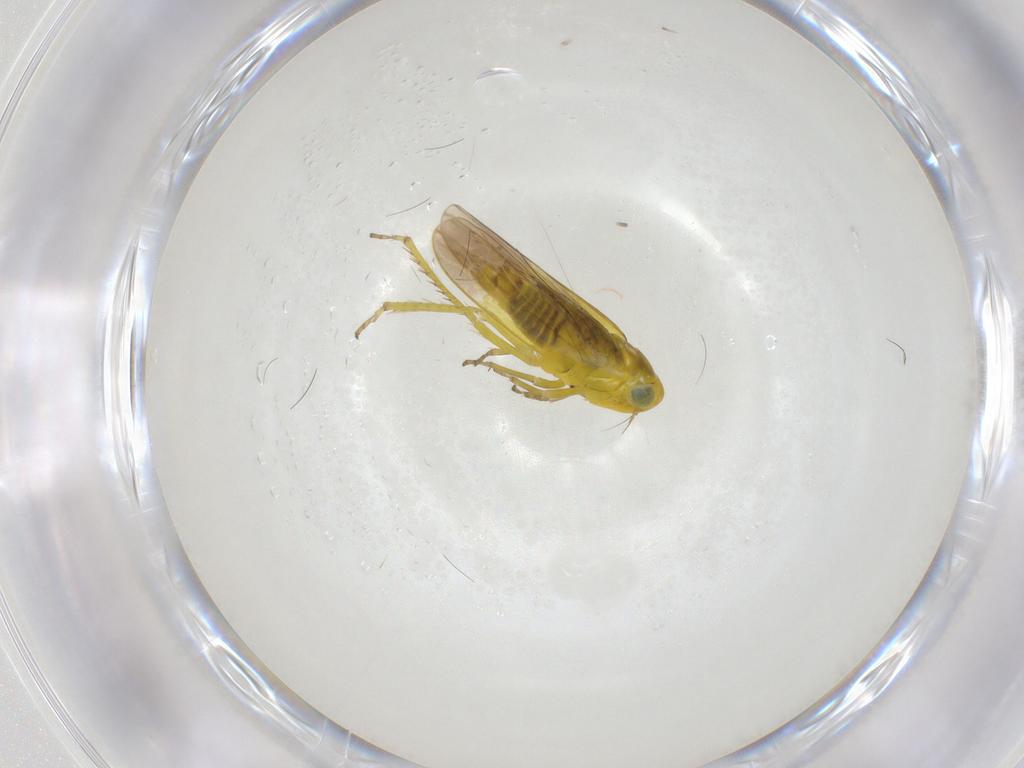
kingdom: Animalia
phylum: Arthropoda
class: Insecta
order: Hemiptera
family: Cicadellidae
